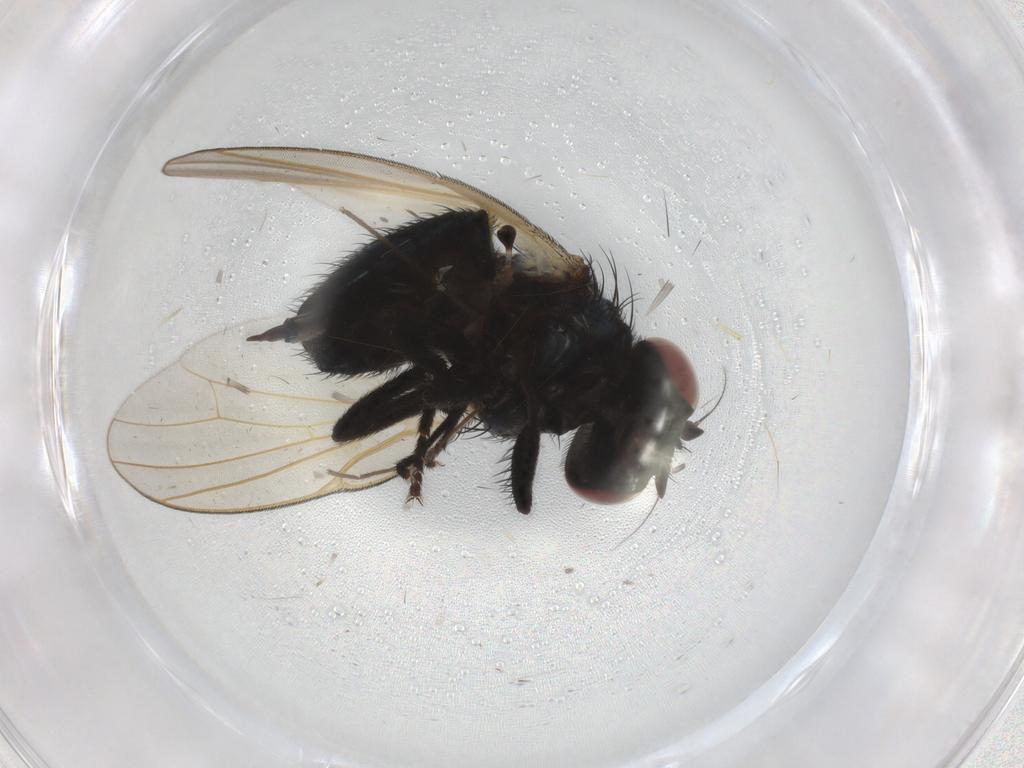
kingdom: Animalia
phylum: Arthropoda
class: Insecta
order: Diptera
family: Lonchaeidae
